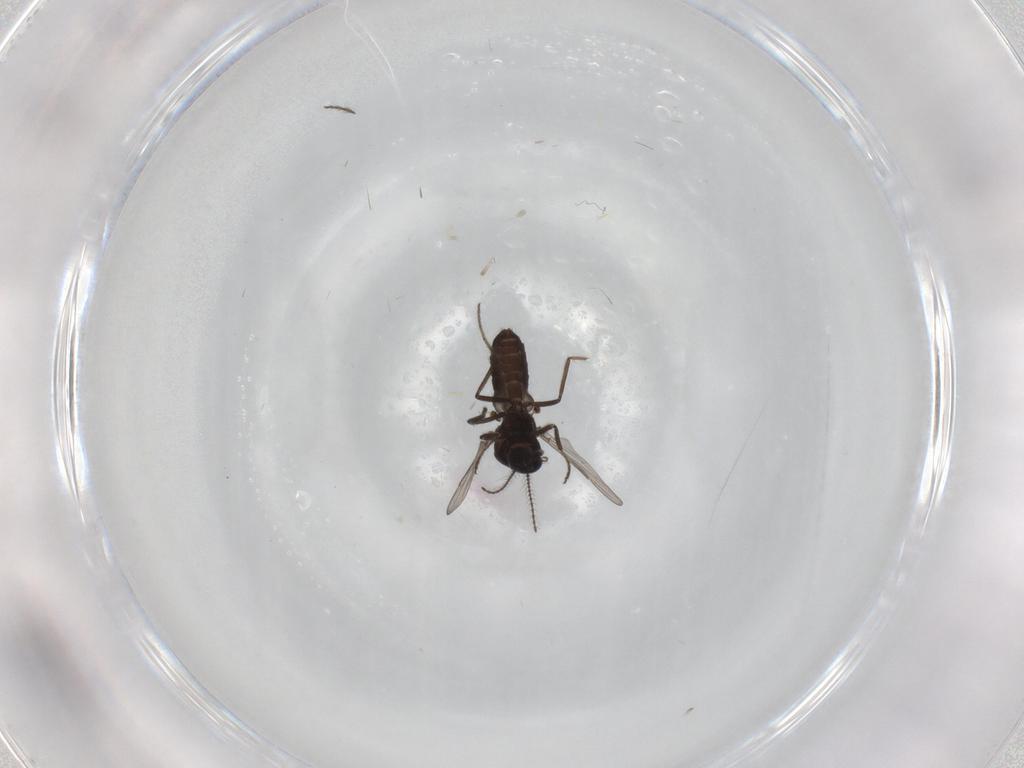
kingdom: Animalia
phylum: Arthropoda
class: Insecta
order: Diptera
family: Ceratopogonidae
